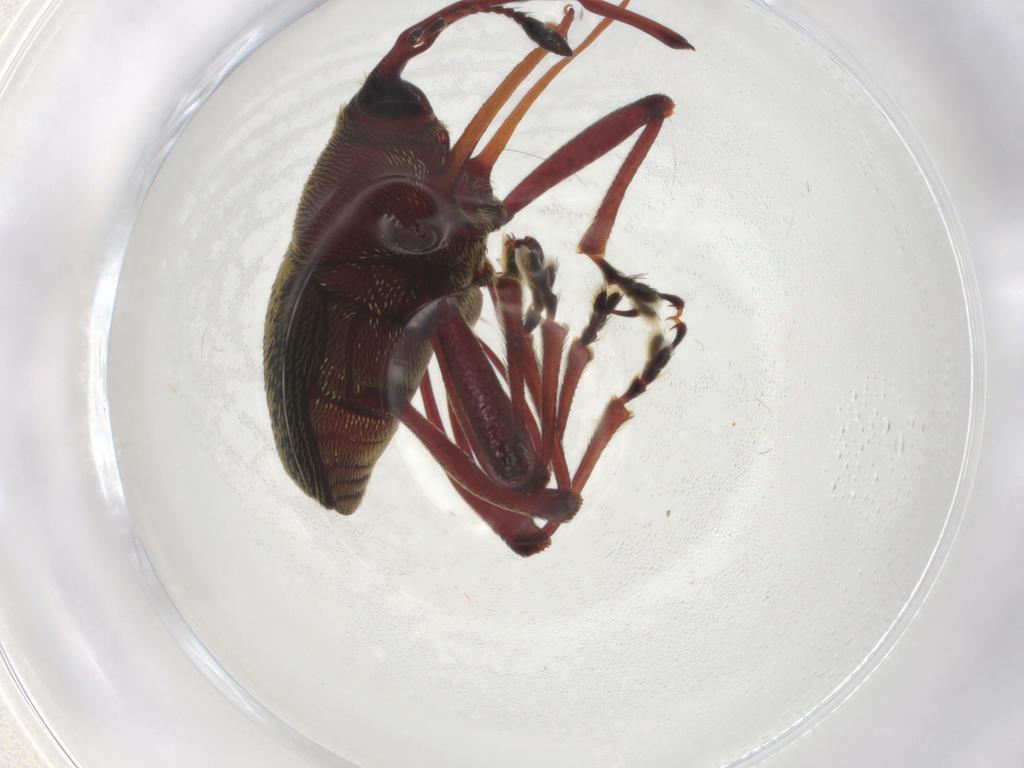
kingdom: Animalia
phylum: Arthropoda
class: Insecta
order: Coleoptera
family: Curculionidae
